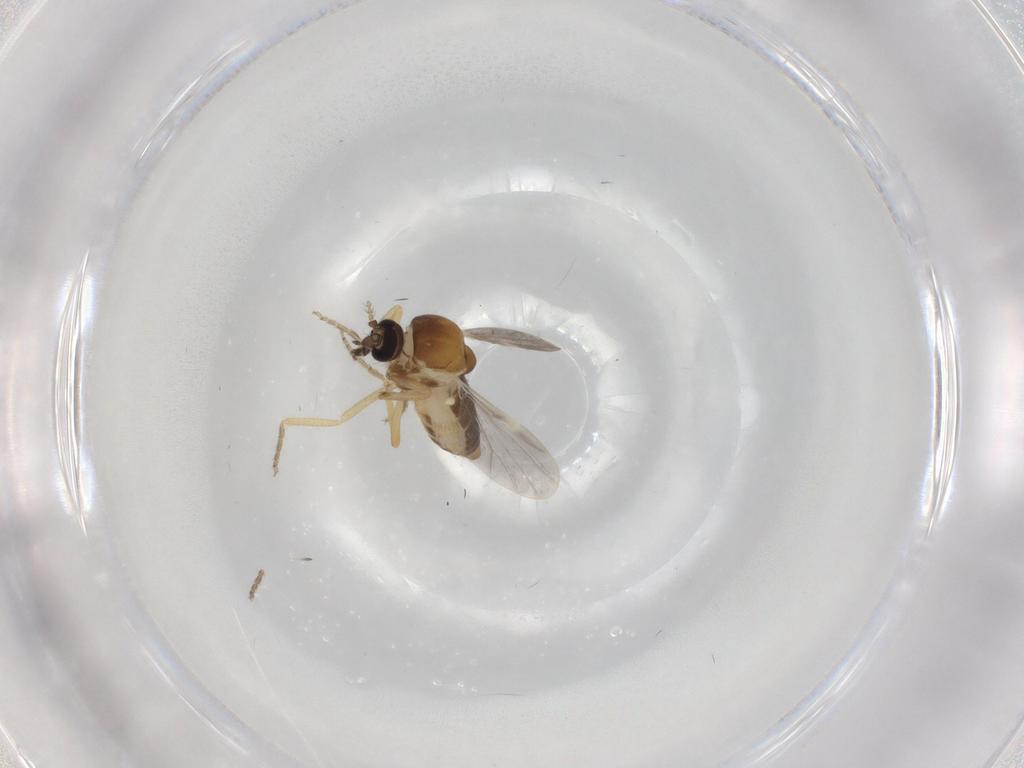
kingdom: Animalia
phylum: Arthropoda
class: Insecta
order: Diptera
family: Ceratopogonidae
